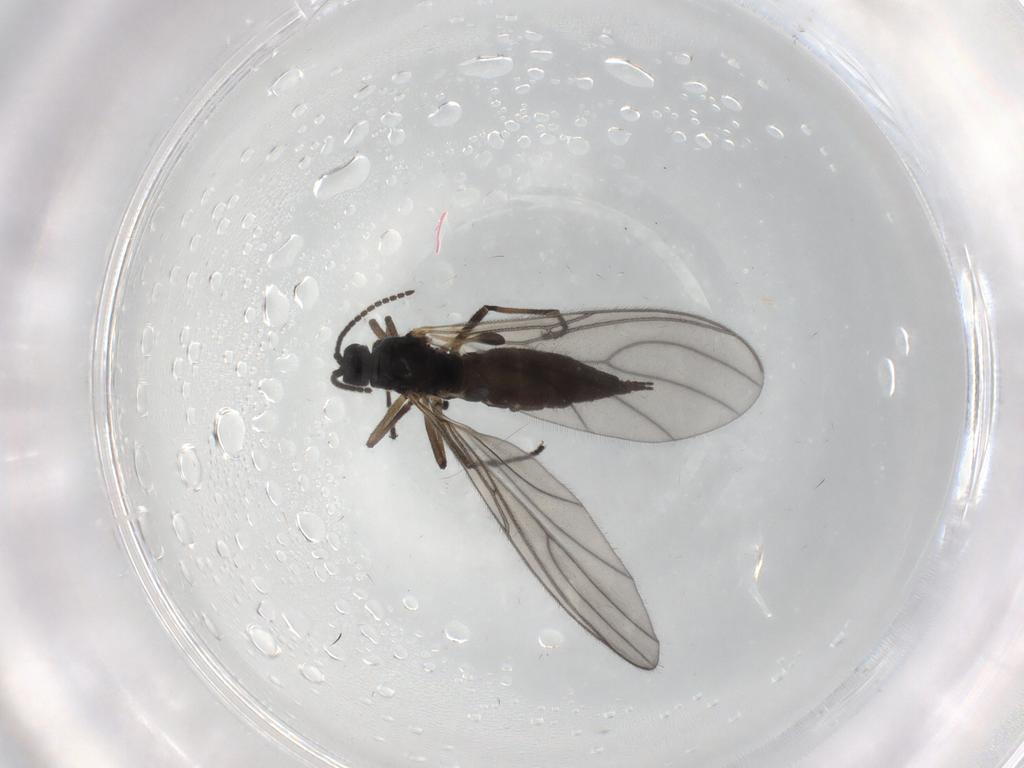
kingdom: Animalia
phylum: Arthropoda
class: Insecta
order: Diptera
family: Sciaridae
